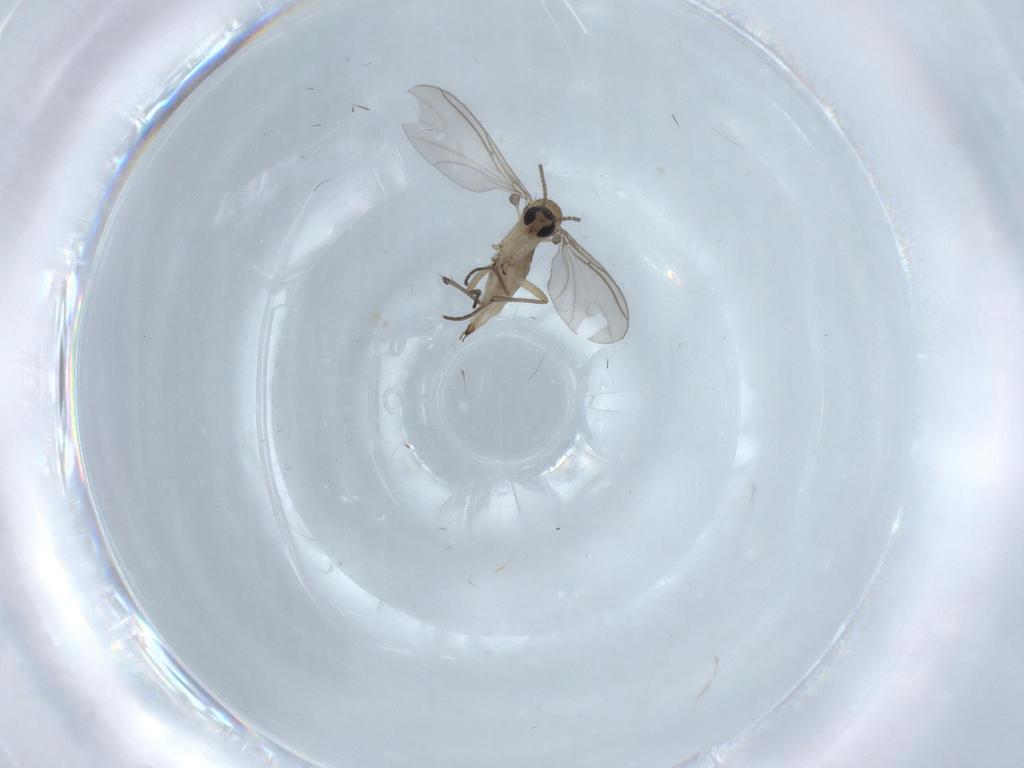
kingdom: Animalia
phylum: Arthropoda
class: Insecta
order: Diptera
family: Sciaridae
